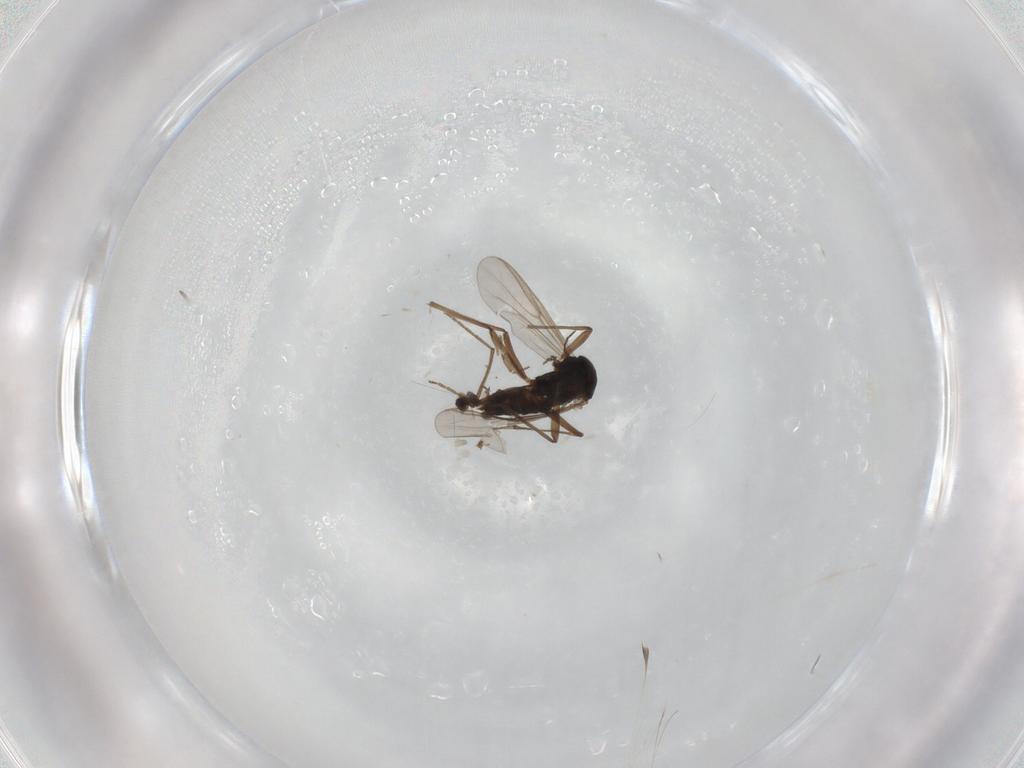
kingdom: Animalia
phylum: Arthropoda
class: Insecta
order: Diptera
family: Chironomidae
